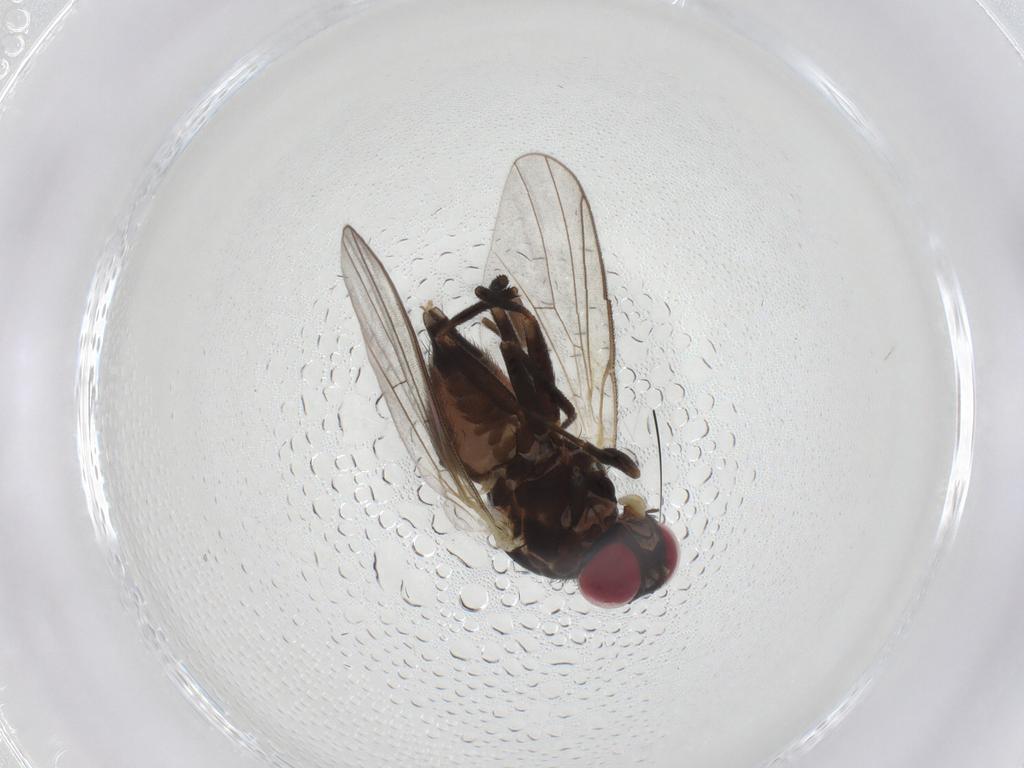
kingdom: Animalia
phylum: Arthropoda
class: Insecta
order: Diptera
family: Agromyzidae
